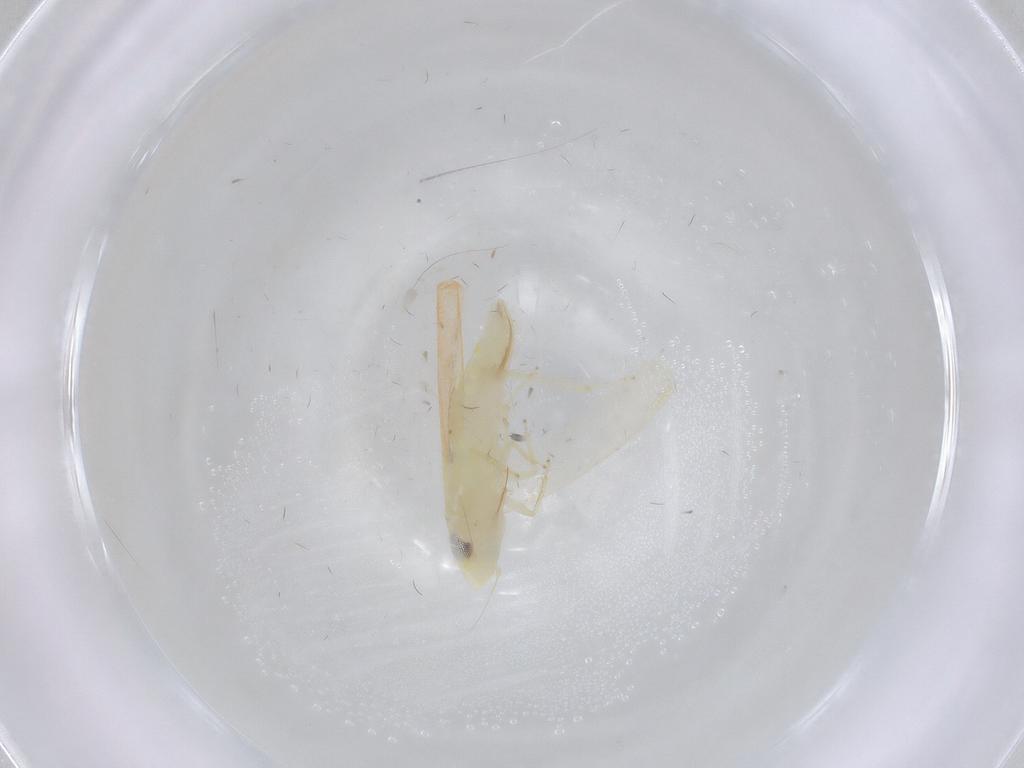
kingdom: Animalia
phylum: Arthropoda
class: Insecta
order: Hemiptera
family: Cicadellidae
